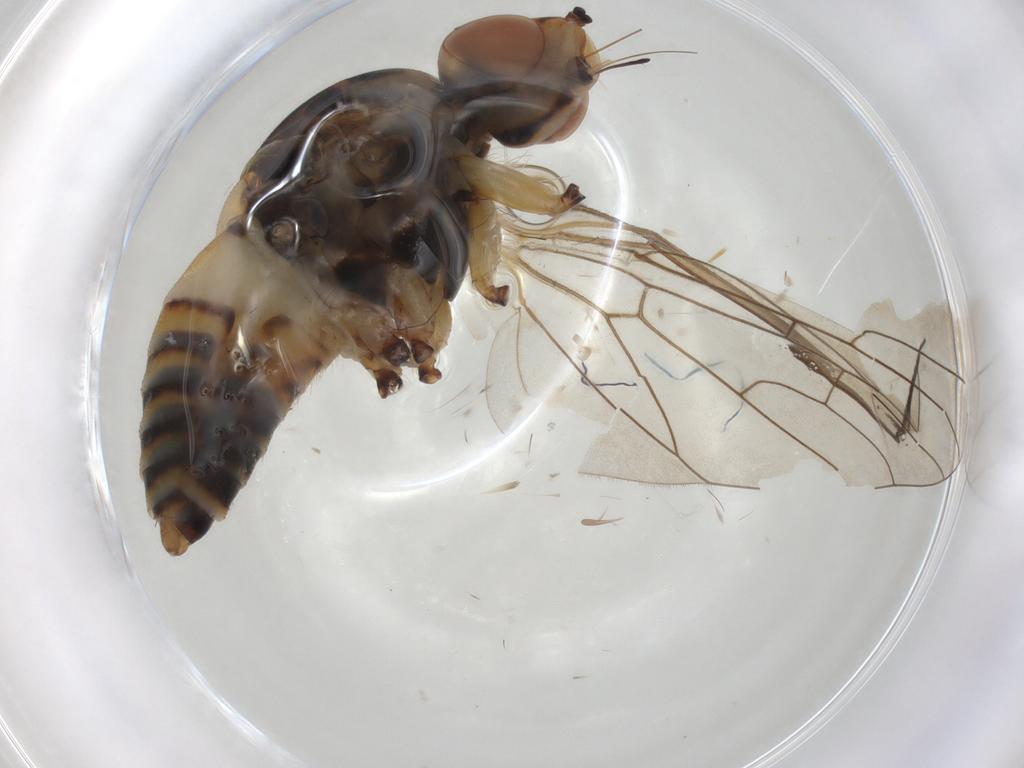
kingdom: Animalia
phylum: Arthropoda
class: Insecta
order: Diptera
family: Bombyliidae
